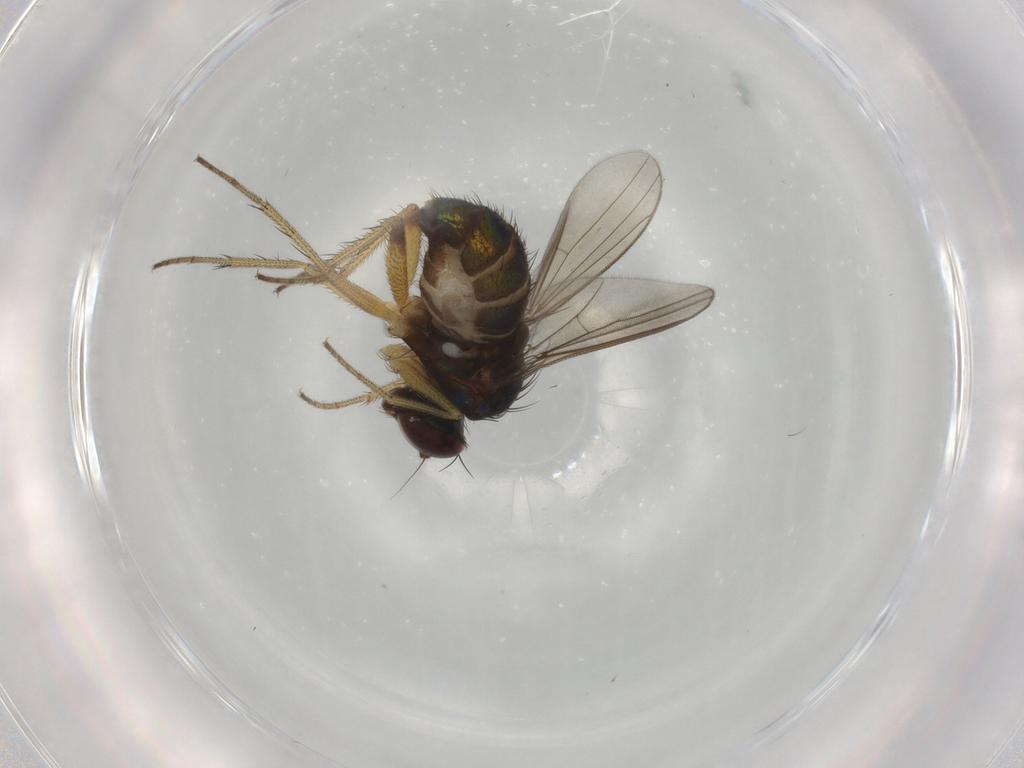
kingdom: Animalia
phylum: Arthropoda
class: Insecta
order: Diptera
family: Dolichopodidae
